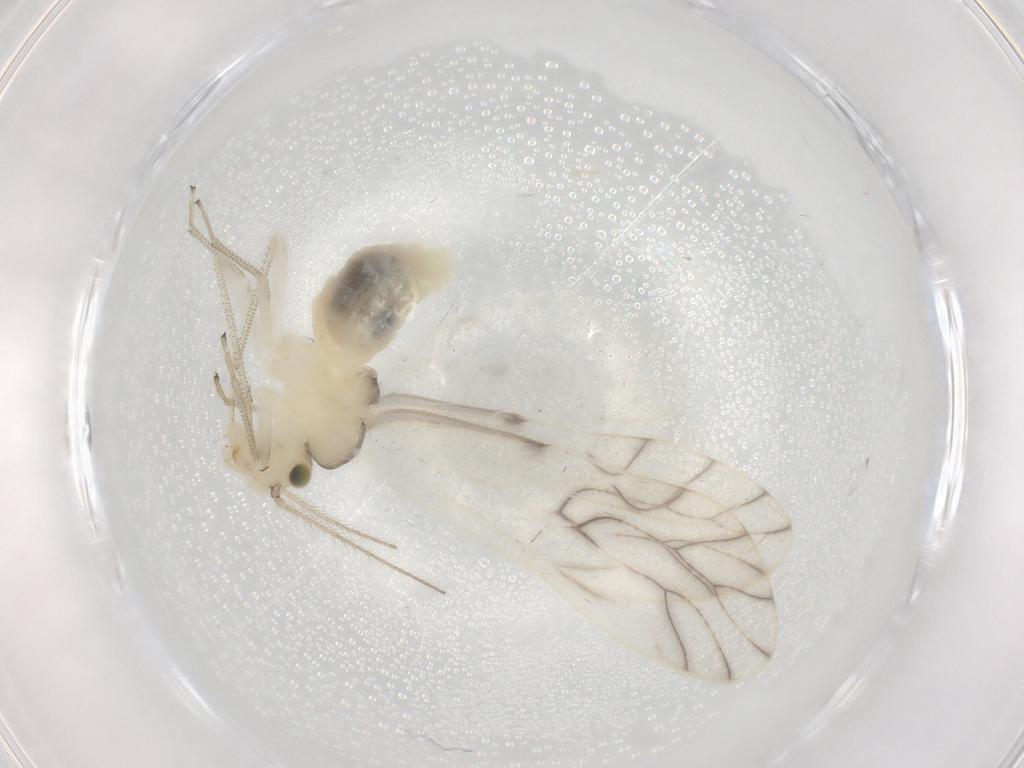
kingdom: Animalia
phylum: Arthropoda
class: Insecta
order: Psocodea
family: Caeciliusidae
